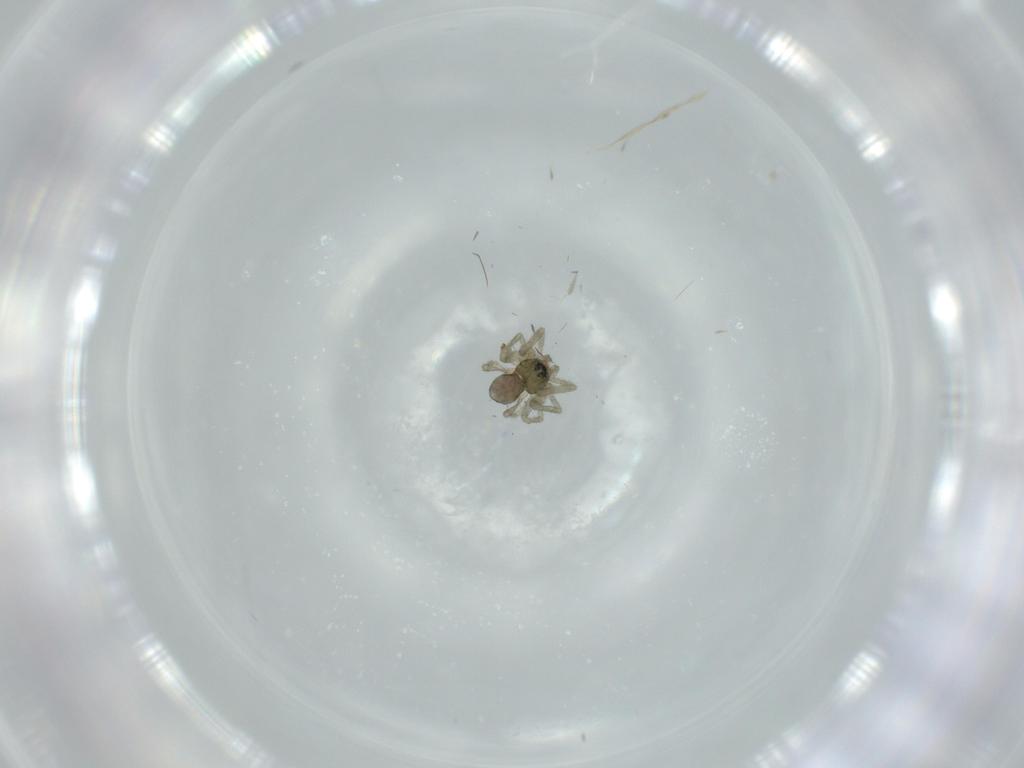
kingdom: Animalia
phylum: Arthropoda
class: Arachnida
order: Araneae
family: Linyphiidae
